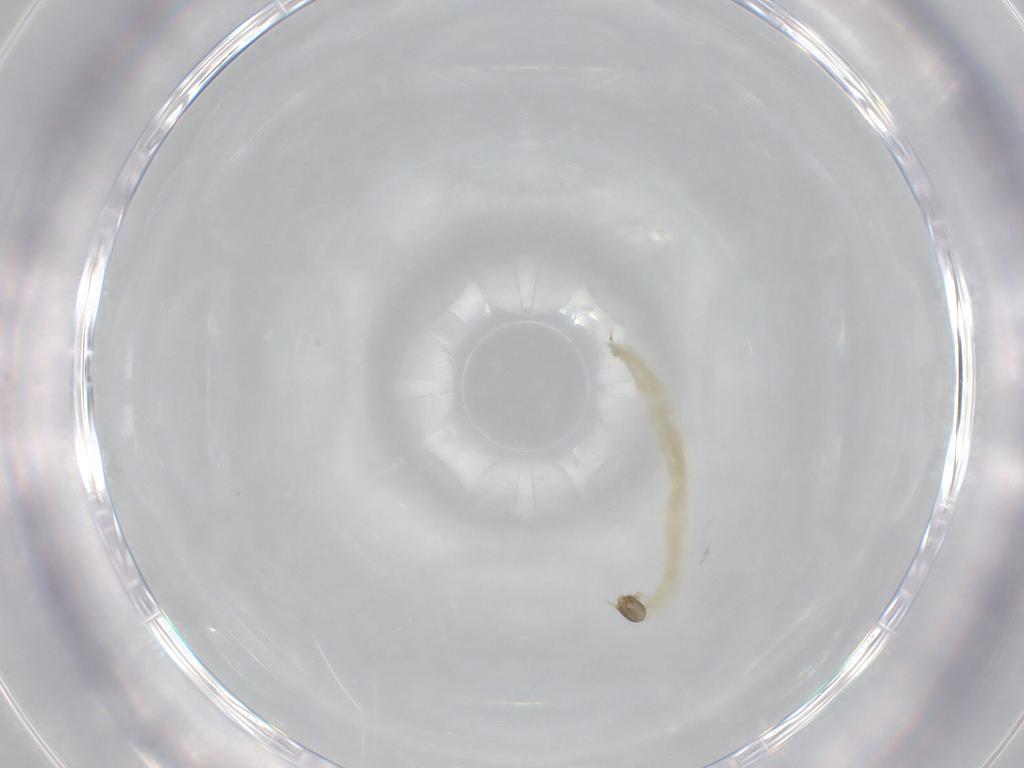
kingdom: Animalia
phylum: Arthropoda
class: Insecta
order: Diptera
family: Chironomidae
